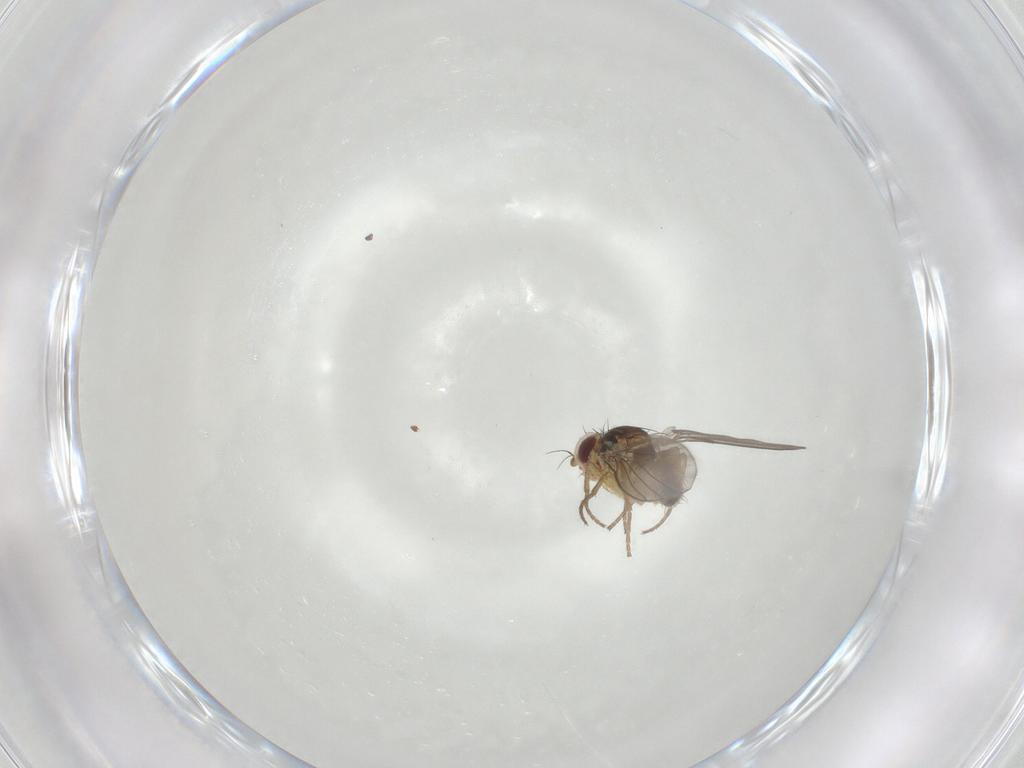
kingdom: Animalia
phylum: Arthropoda
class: Insecta
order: Diptera
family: Agromyzidae
